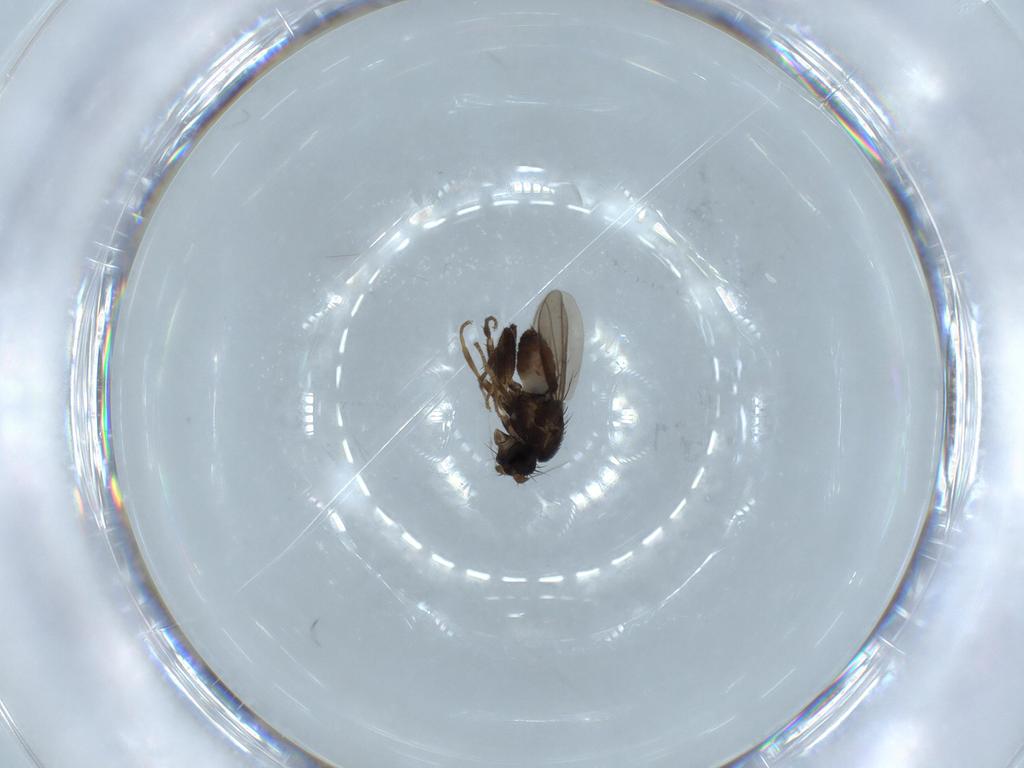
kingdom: Animalia
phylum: Arthropoda
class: Insecta
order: Diptera
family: Sphaeroceridae
